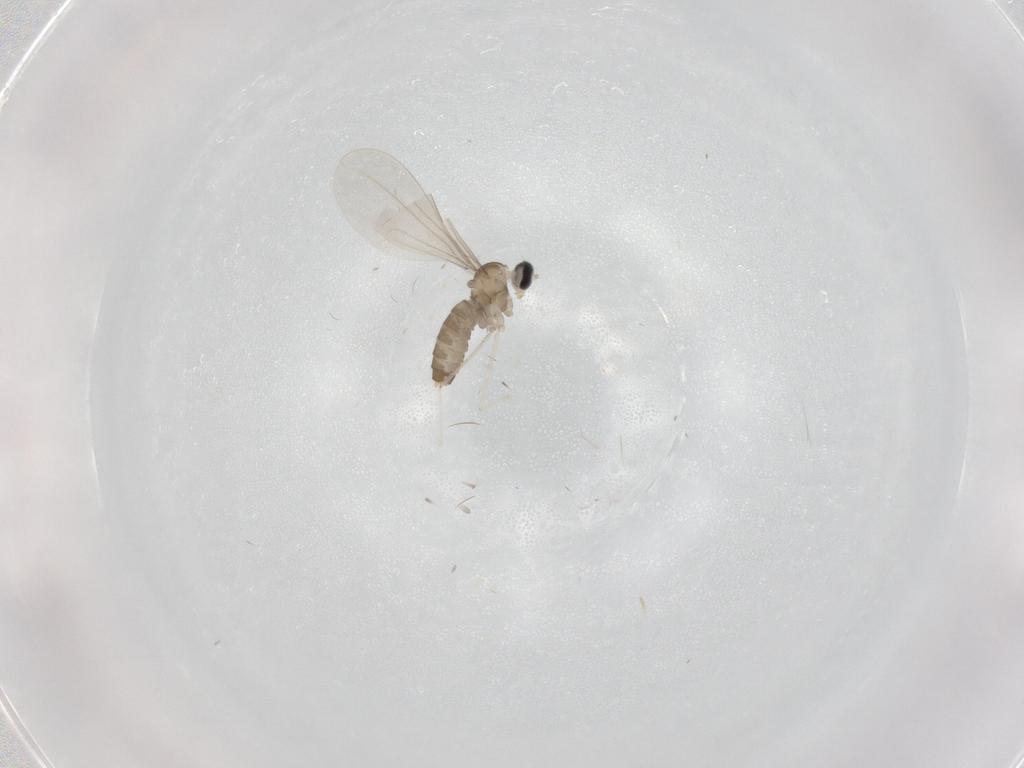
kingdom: Animalia
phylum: Arthropoda
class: Insecta
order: Diptera
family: Cecidomyiidae
